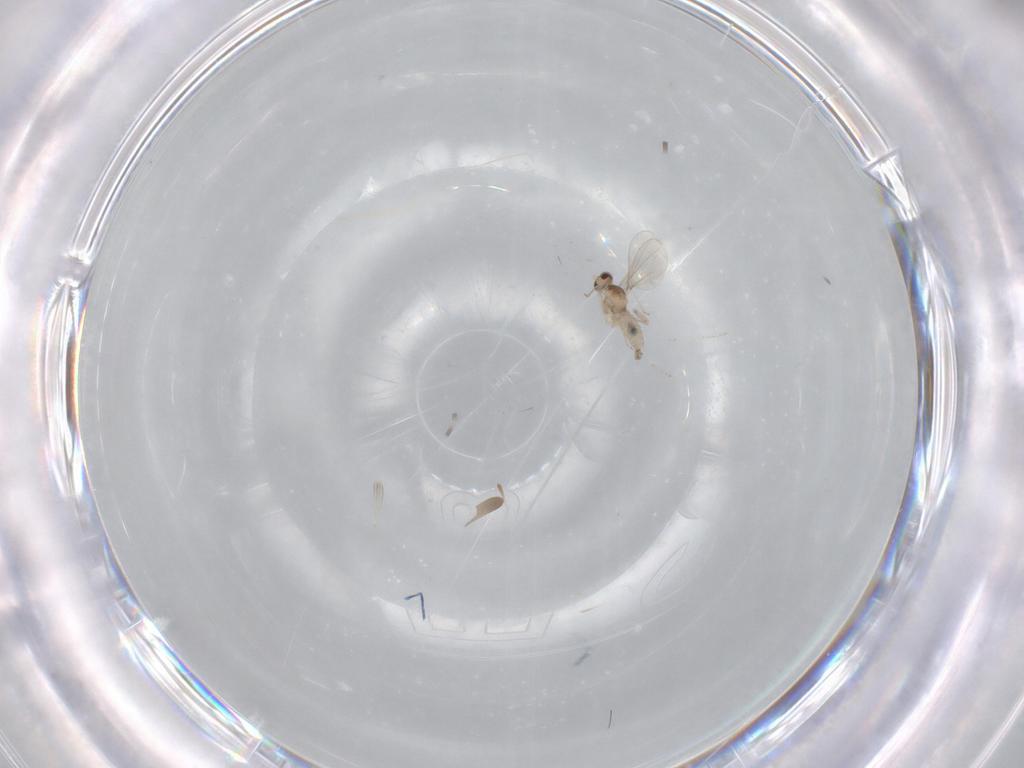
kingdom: Animalia
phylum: Arthropoda
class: Insecta
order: Diptera
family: Cecidomyiidae
